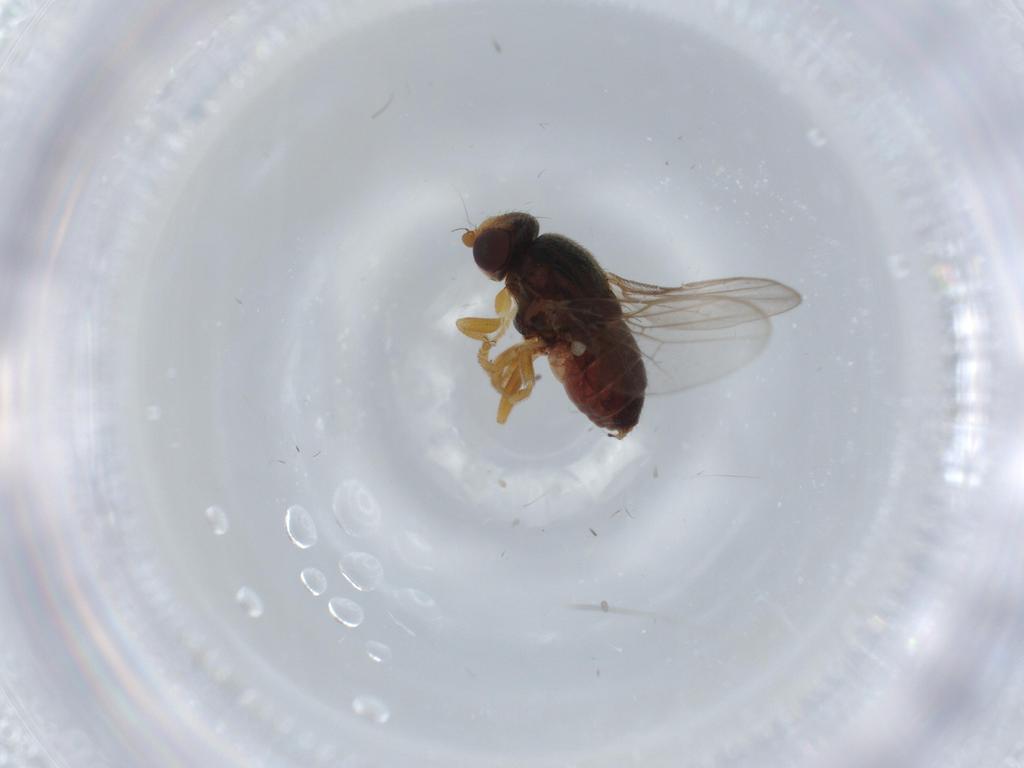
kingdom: Animalia
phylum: Arthropoda
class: Insecta
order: Diptera
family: Chloropidae
